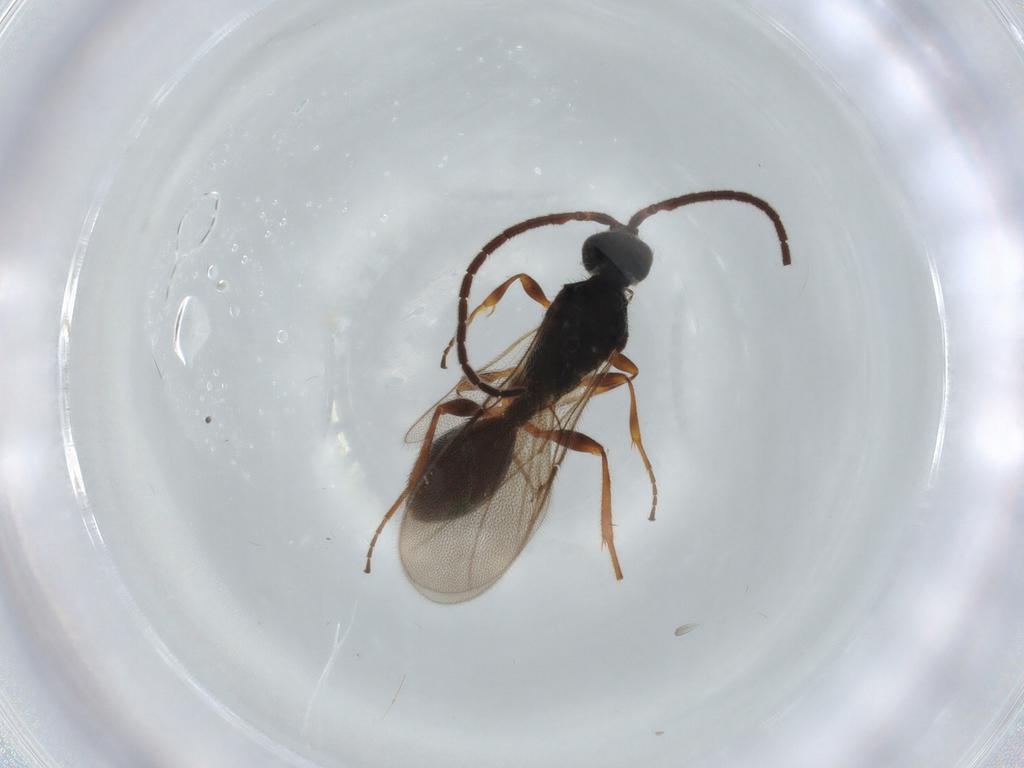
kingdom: Animalia
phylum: Arthropoda
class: Insecta
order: Hymenoptera
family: Diapriidae
